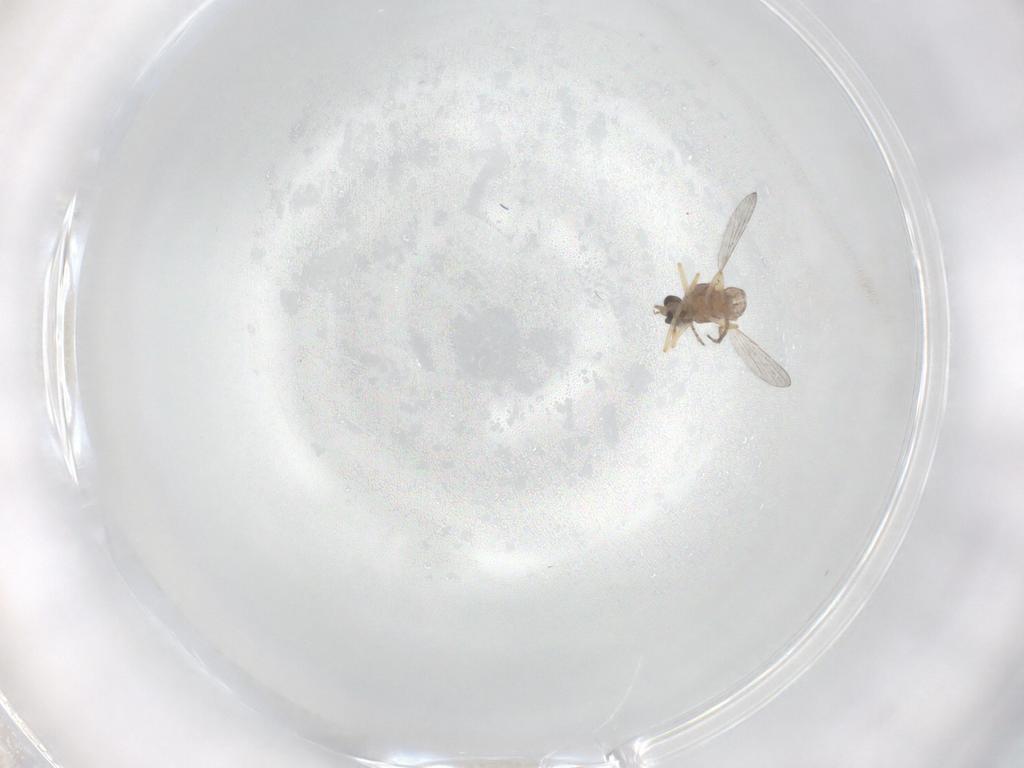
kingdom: Animalia
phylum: Arthropoda
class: Insecta
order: Diptera
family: Ceratopogonidae
